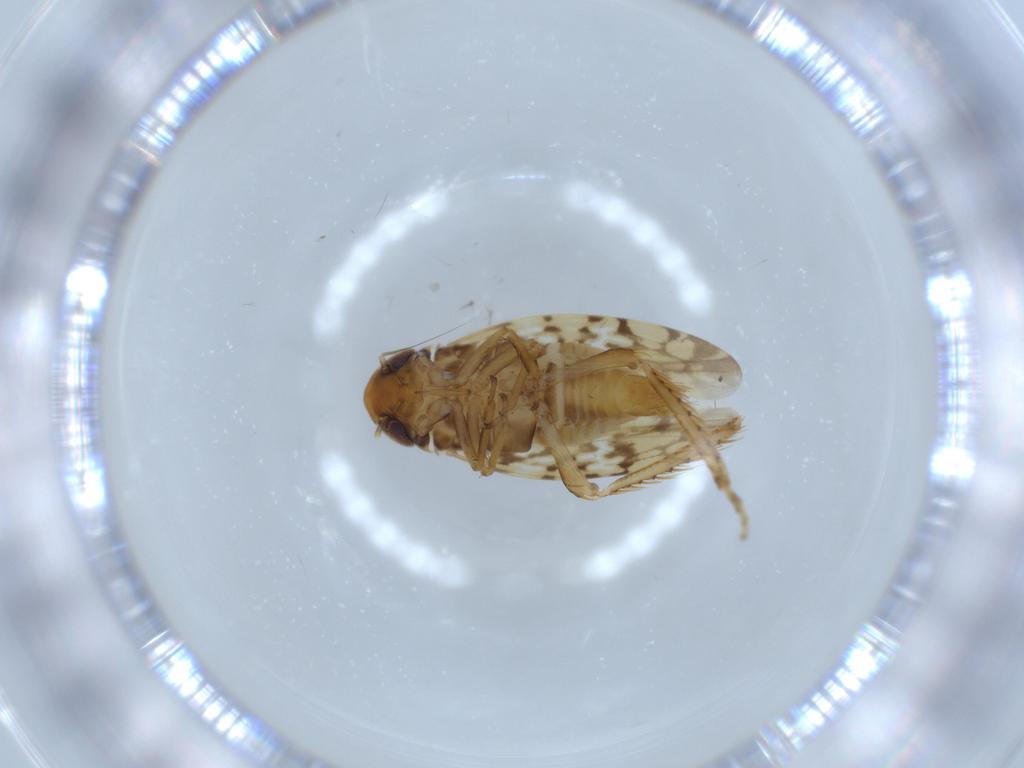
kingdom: Animalia
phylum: Arthropoda
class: Insecta
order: Hemiptera
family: Cicadellidae
